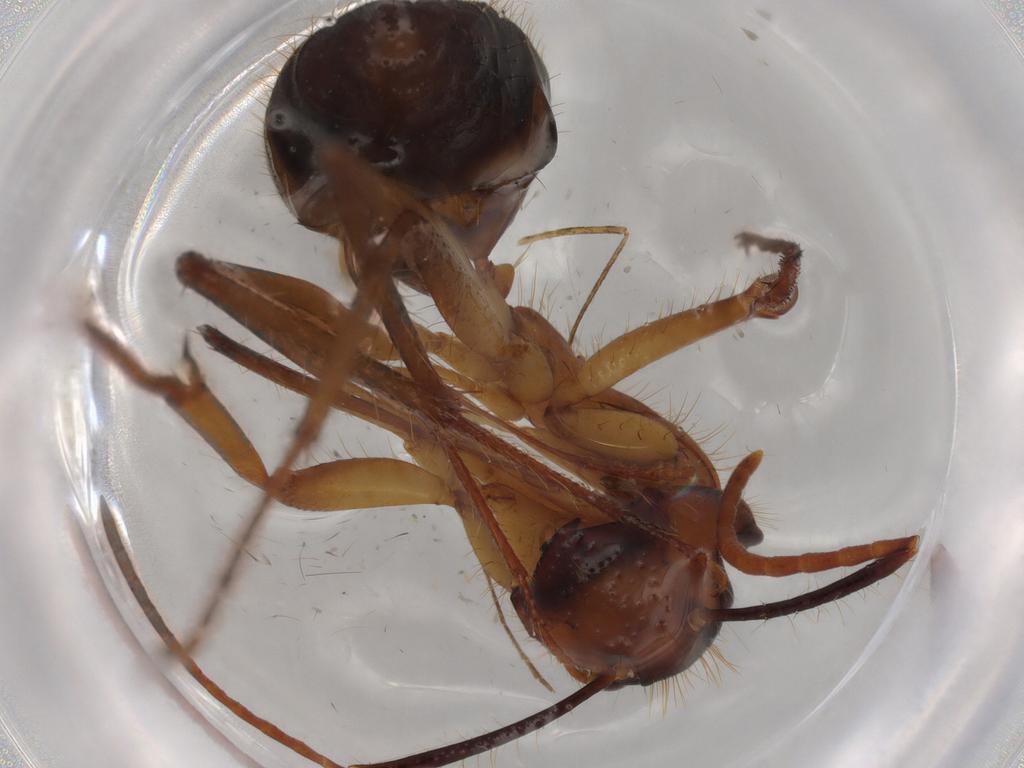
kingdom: Animalia
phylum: Arthropoda
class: Insecta
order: Hymenoptera
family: Formicidae
